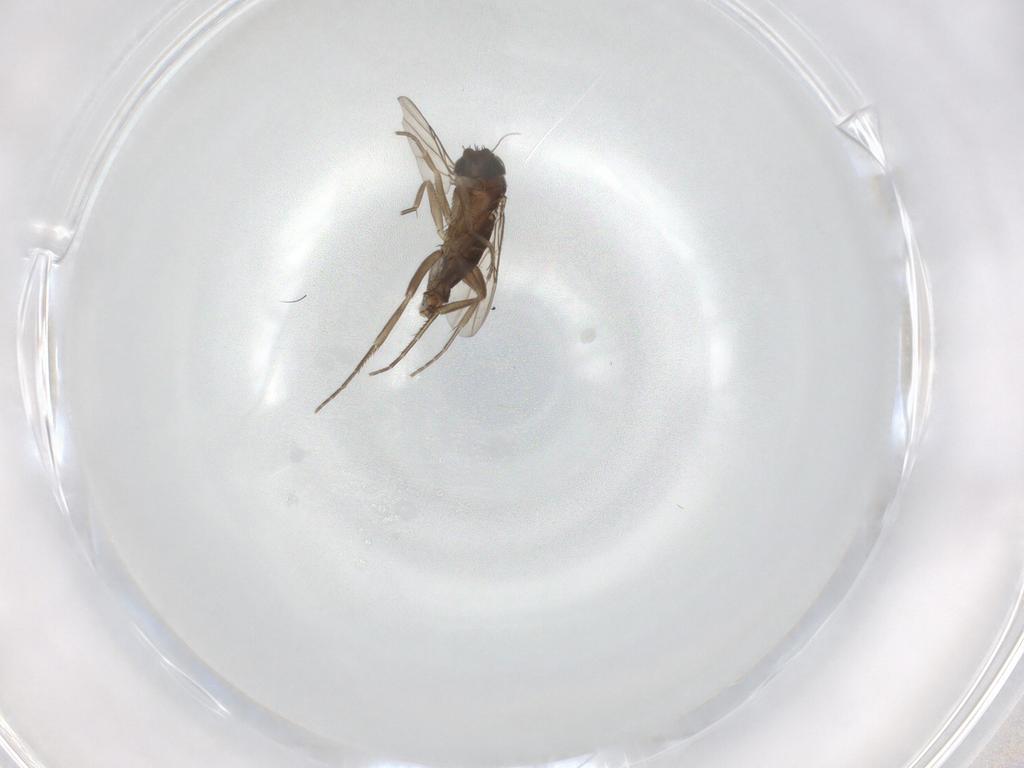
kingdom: Animalia
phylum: Arthropoda
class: Insecta
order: Diptera
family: Phoridae
